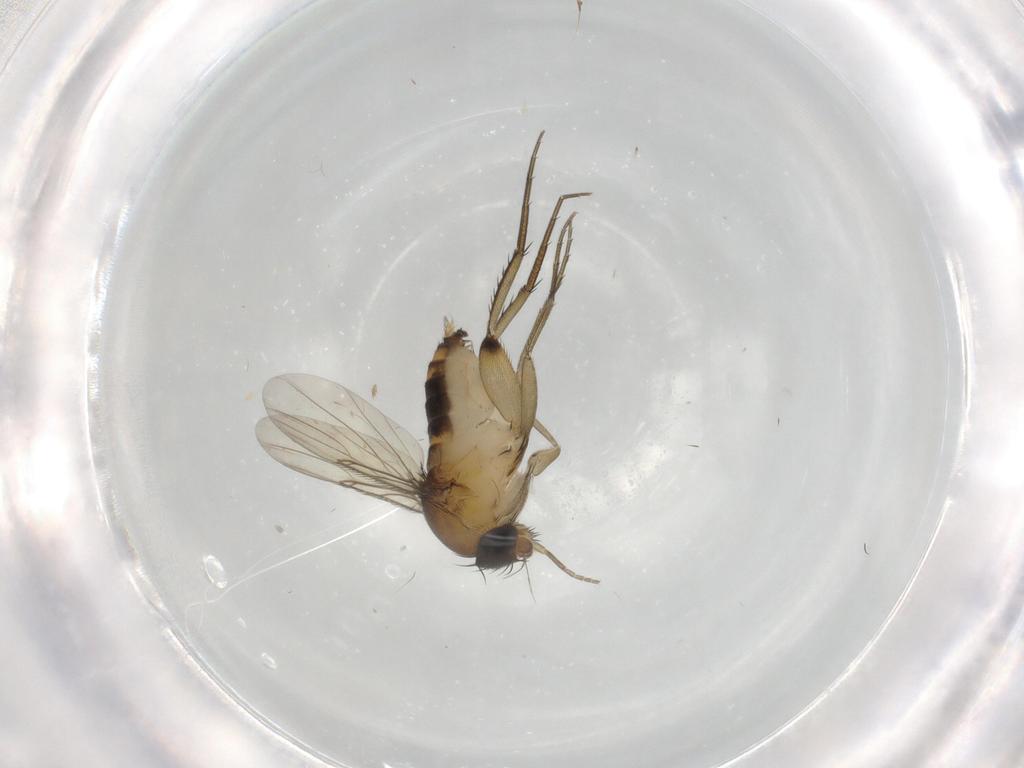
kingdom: Animalia
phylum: Arthropoda
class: Insecta
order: Diptera
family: Phoridae
